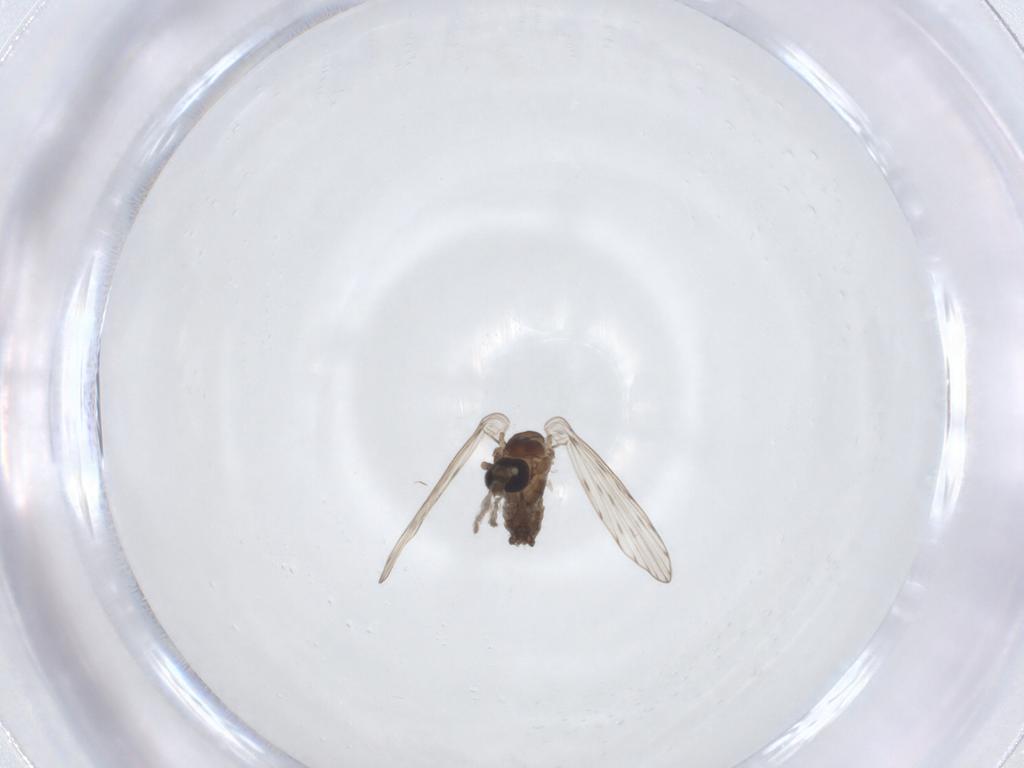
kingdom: Animalia
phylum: Arthropoda
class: Insecta
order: Diptera
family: Psychodidae
